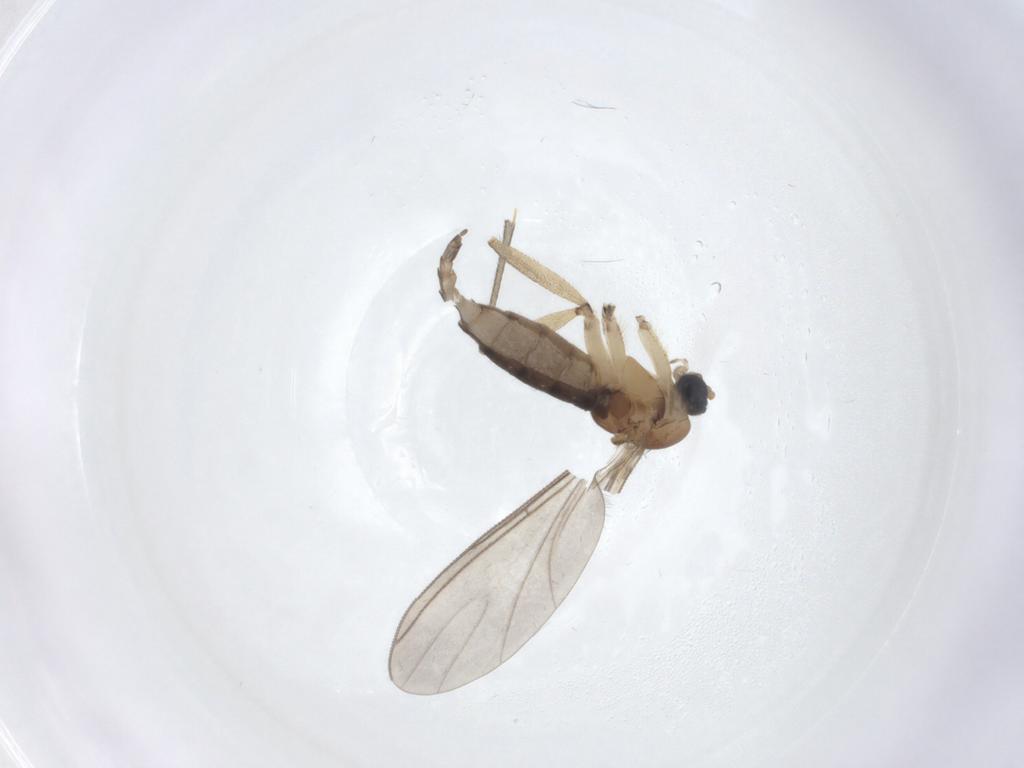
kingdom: Animalia
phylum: Arthropoda
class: Insecta
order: Diptera
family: Sciaridae
